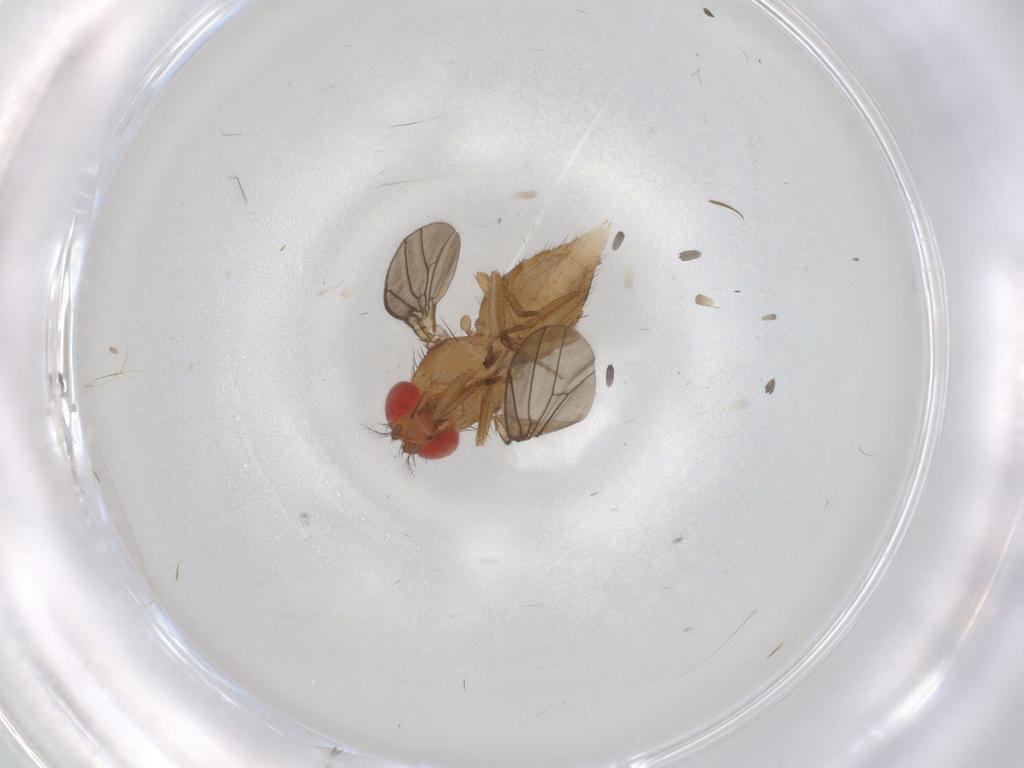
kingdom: Animalia
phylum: Arthropoda
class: Insecta
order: Diptera
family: Drosophilidae
